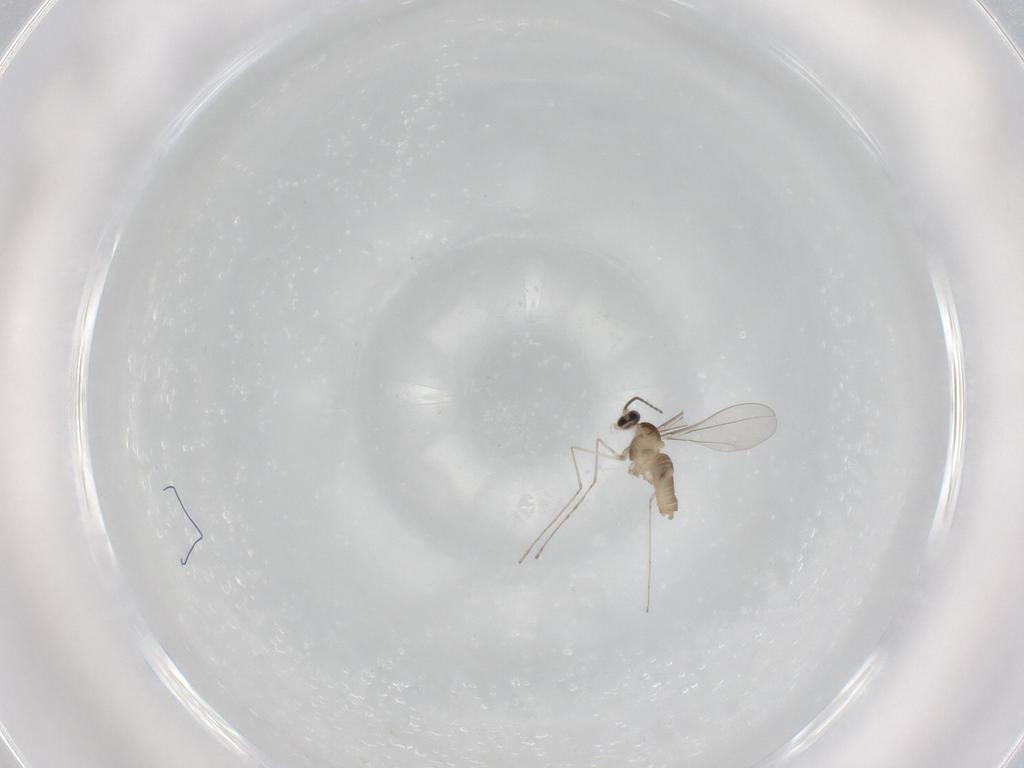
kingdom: Animalia
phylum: Arthropoda
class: Insecta
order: Diptera
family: Cecidomyiidae
